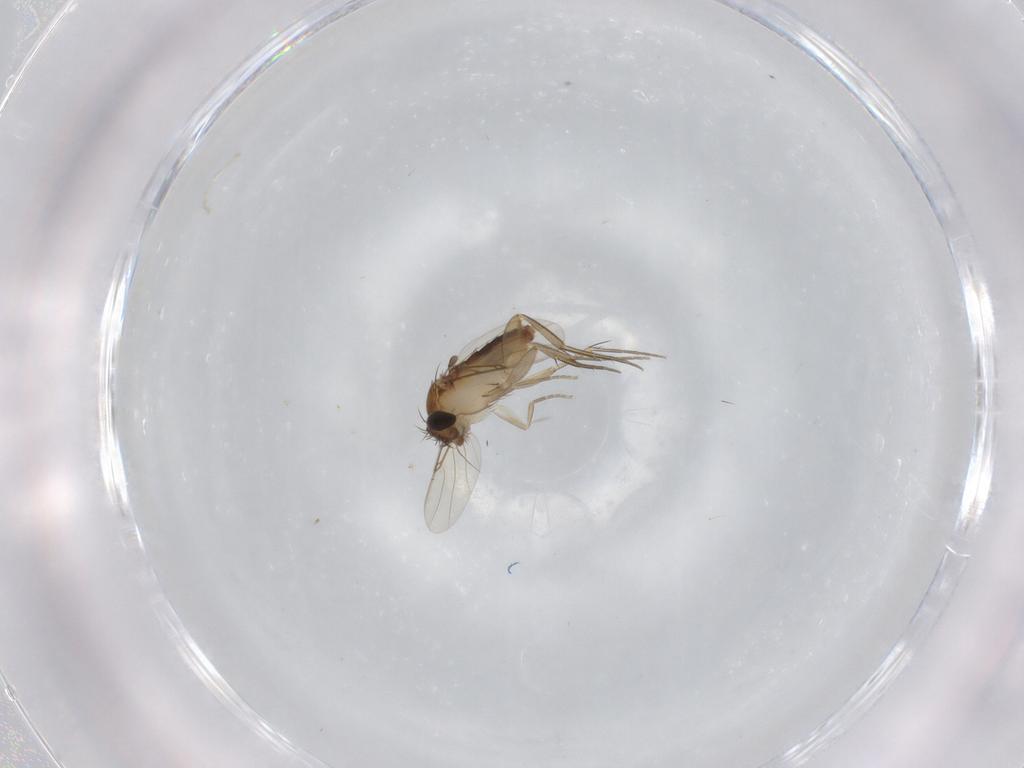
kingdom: Animalia
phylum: Arthropoda
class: Insecta
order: Diptera
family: Phoridae
